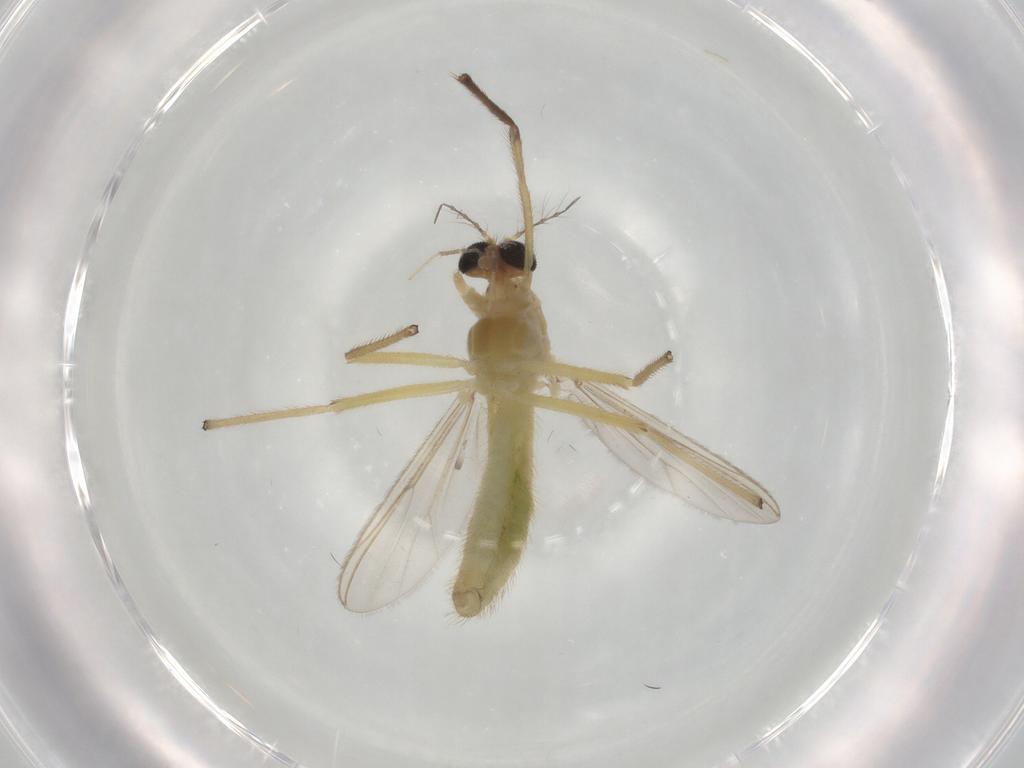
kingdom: Animalia
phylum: Arthropoda
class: Insecta
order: Diptera
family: Chironomidae
